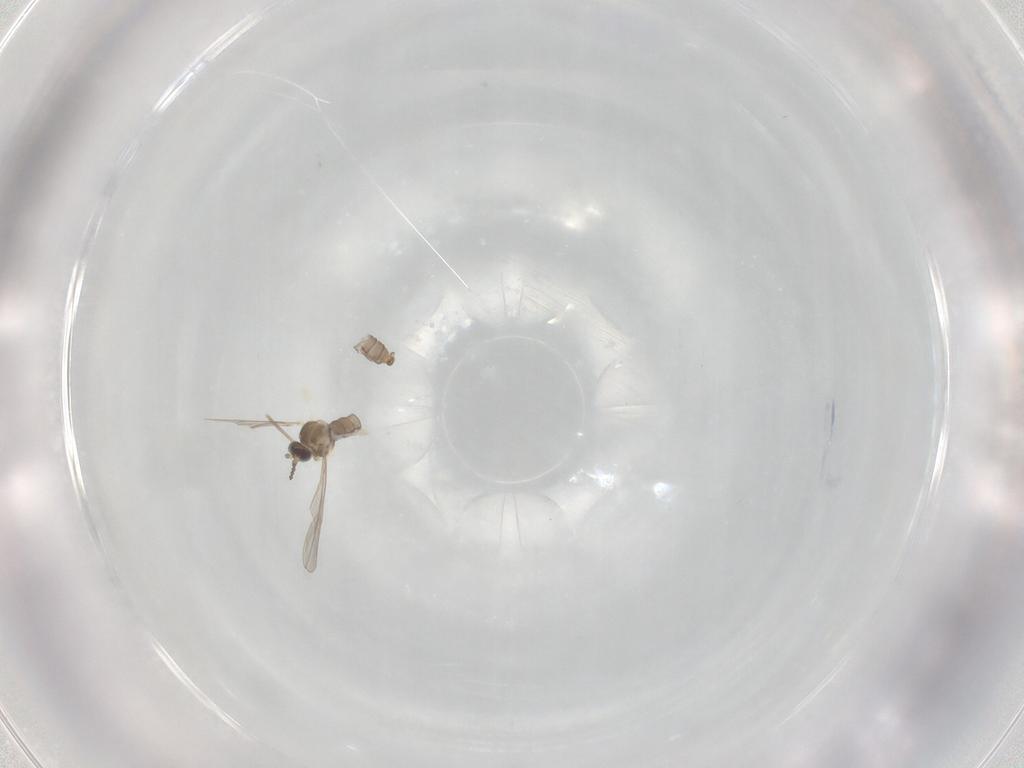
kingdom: Animalia
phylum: Arthropoda
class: Insecta
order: Diptera
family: Cecidomyiidae
